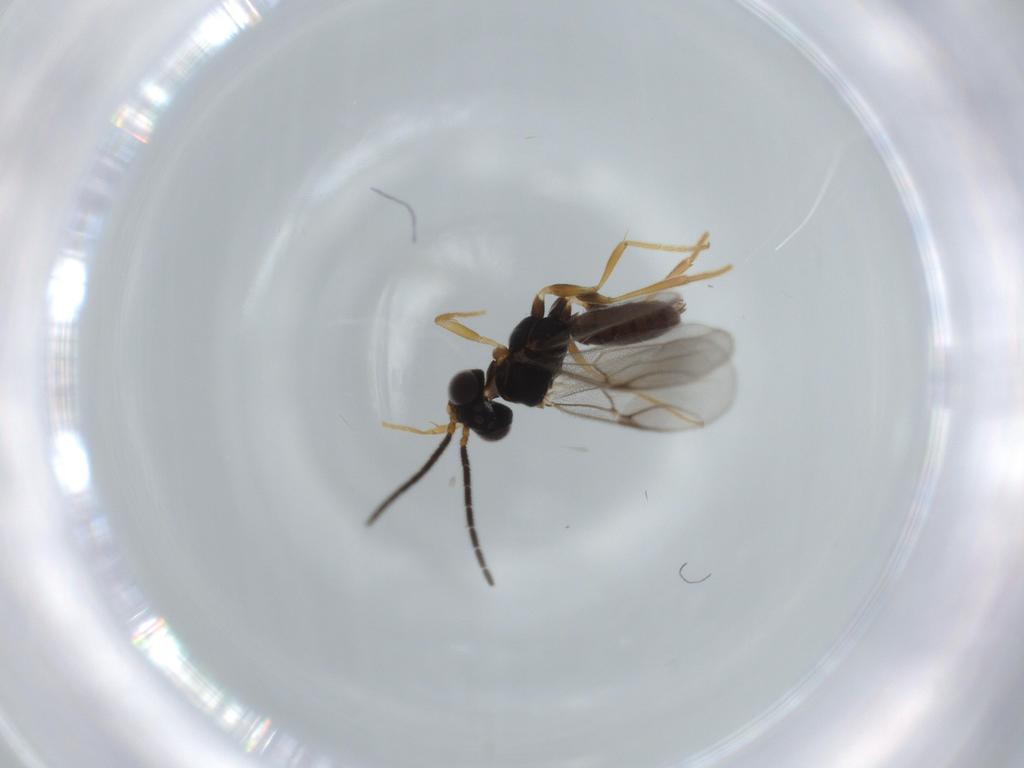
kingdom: Animalia
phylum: Arthropoda
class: Insecta
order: Hymenoptera
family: Dryinidae
